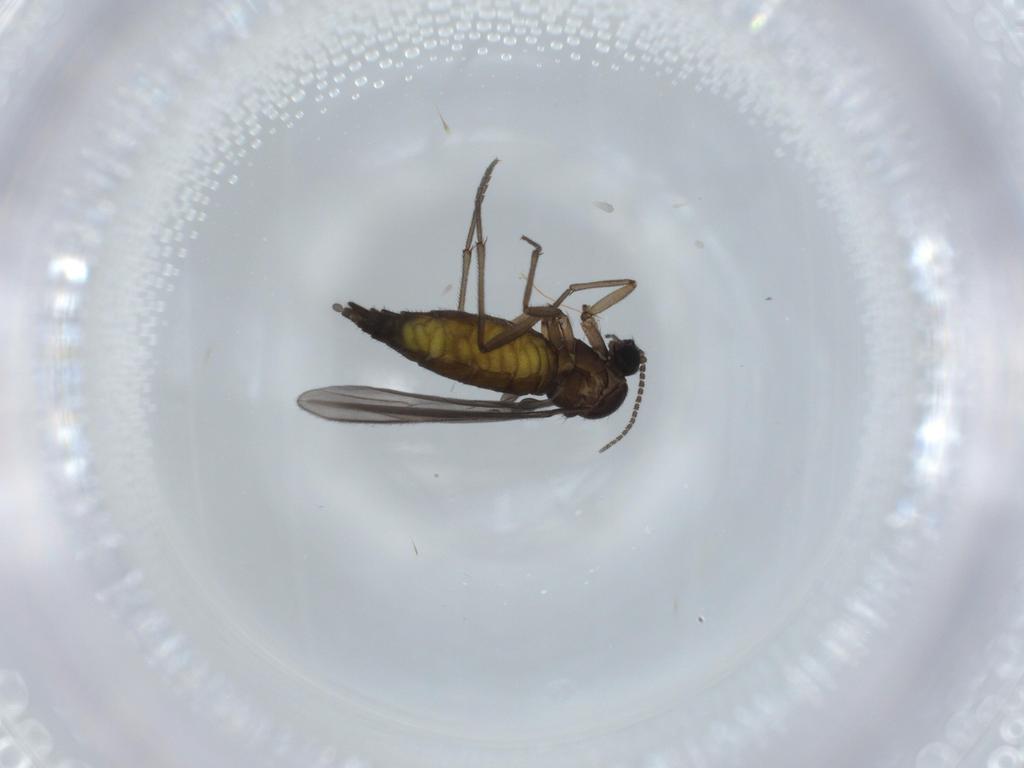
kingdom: Animalia
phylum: Arthropoda
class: Insecta
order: Diptera
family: Sciaridae
